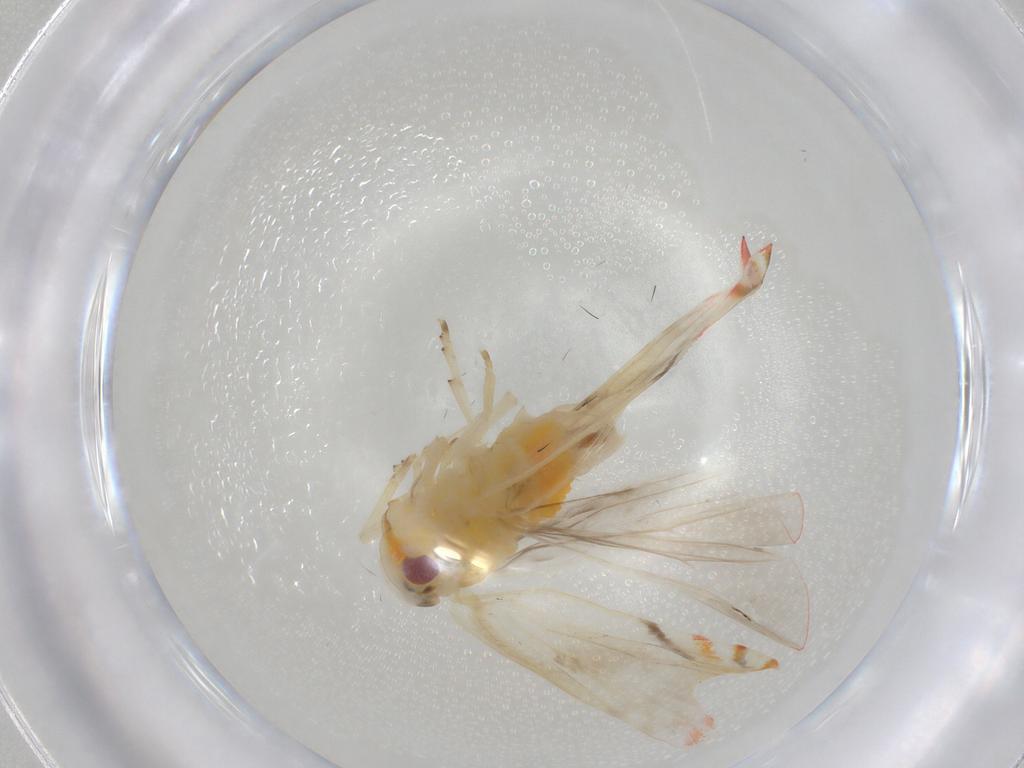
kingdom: Animalia
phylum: Arthropoda
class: Insecta
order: Hemiptera
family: Derbidae
